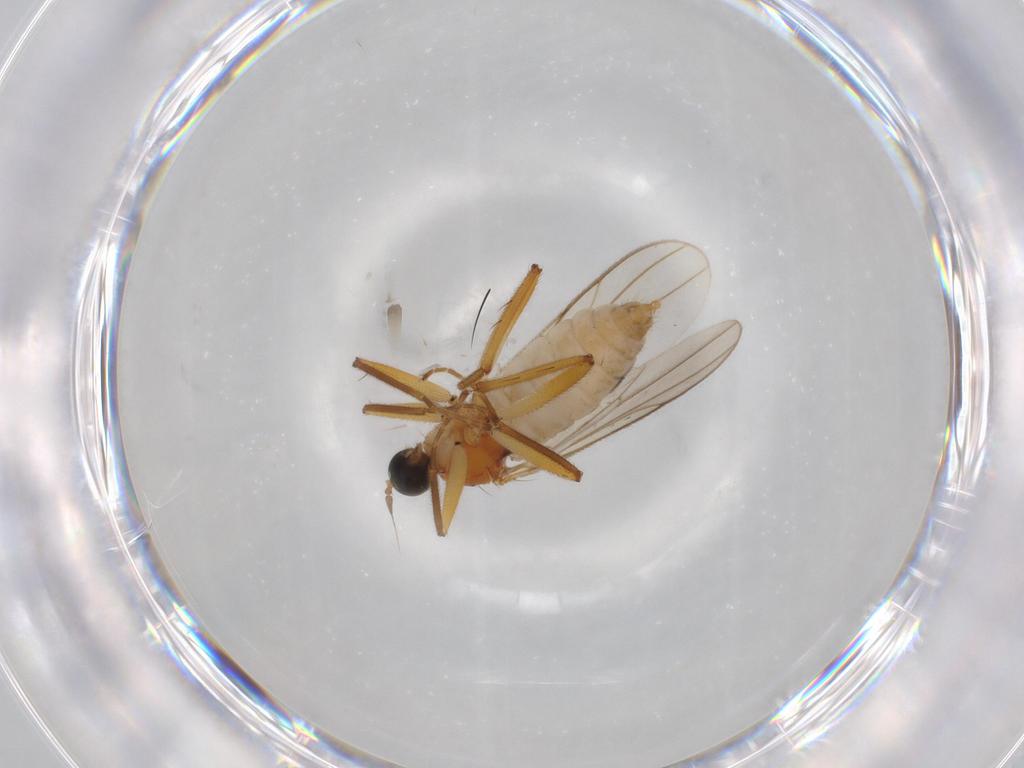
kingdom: Animalia
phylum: Arthropoda
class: Insecta
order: Diptera
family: Hybotidae
